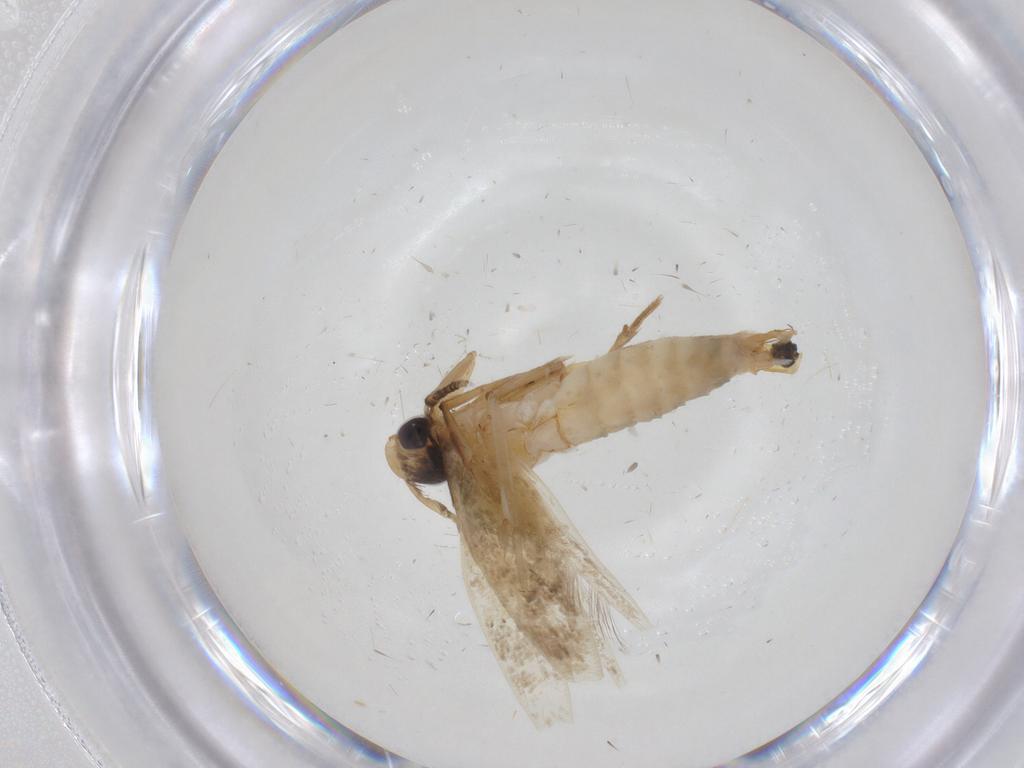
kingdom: Animalia
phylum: Arthropoda
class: Insecta
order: Lepidoptera
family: Tineidae
